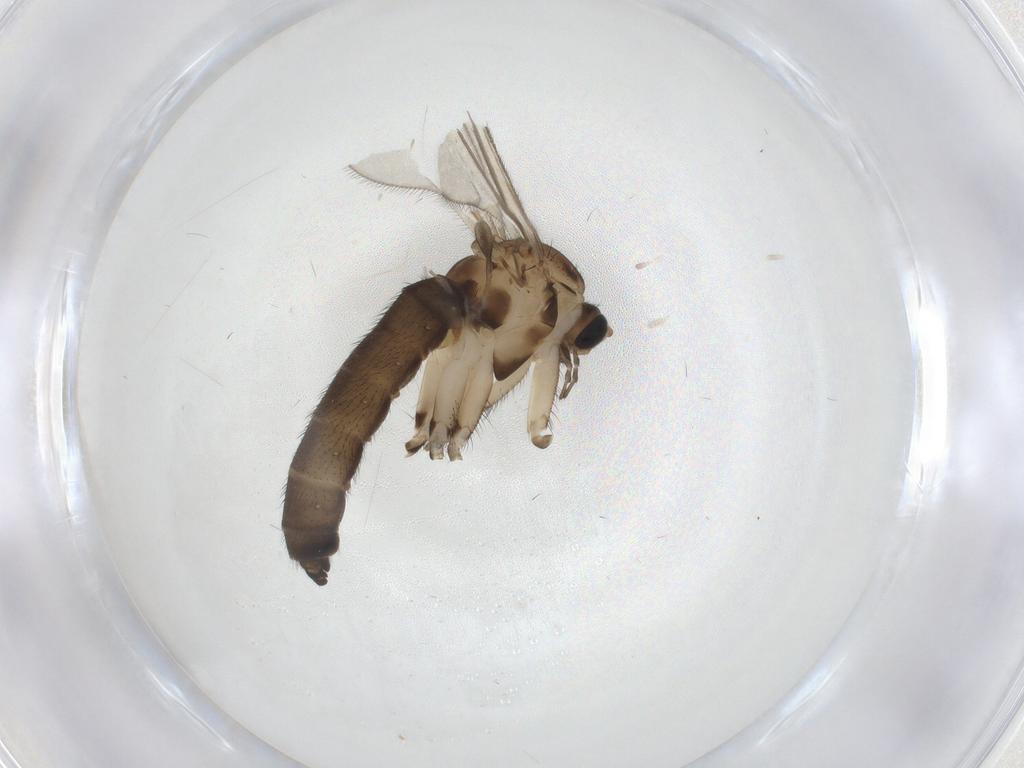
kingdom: Animalia
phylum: Arthropoda
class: Insecta
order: Diptera
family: Sciaridae
